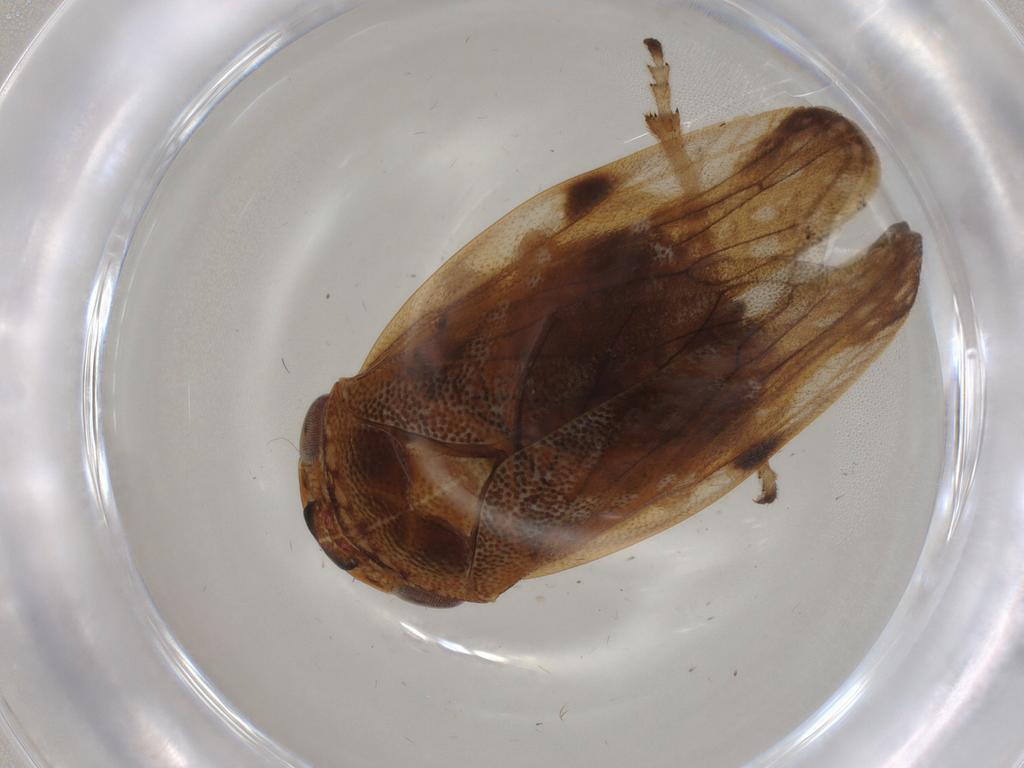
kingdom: Animalia
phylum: Arthropoda
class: Insecta
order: Hemiptera
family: Aphrophoridae
